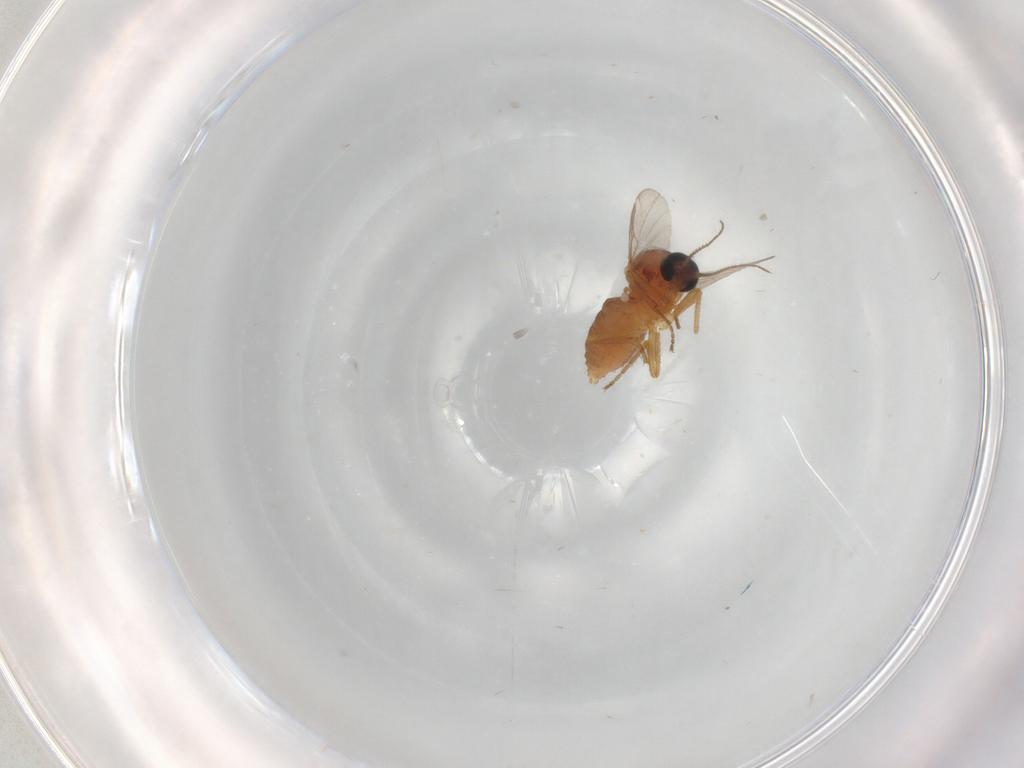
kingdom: Animalia
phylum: Arthropoda
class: Insecta
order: Diptera
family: Ceratopogonidae
